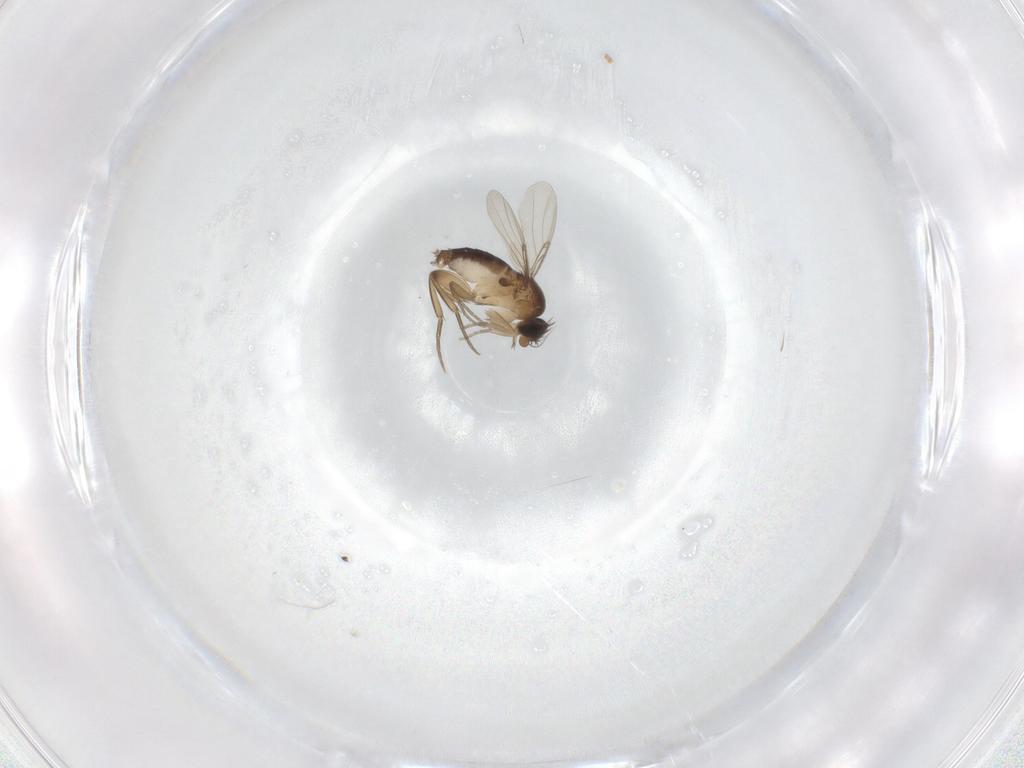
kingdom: Animalia
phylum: Arthropoda
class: Insecta
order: Diptera
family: Phoridae
